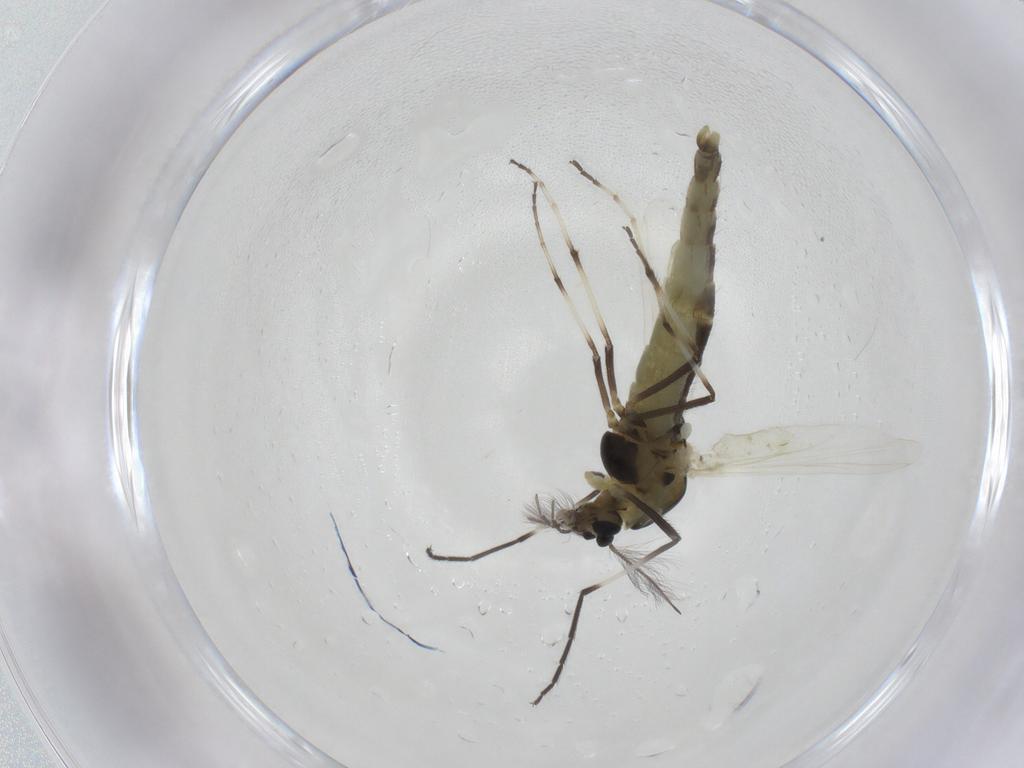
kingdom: Animalia
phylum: Arthropoda
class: Insecta
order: Diptera
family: Chironomidae
